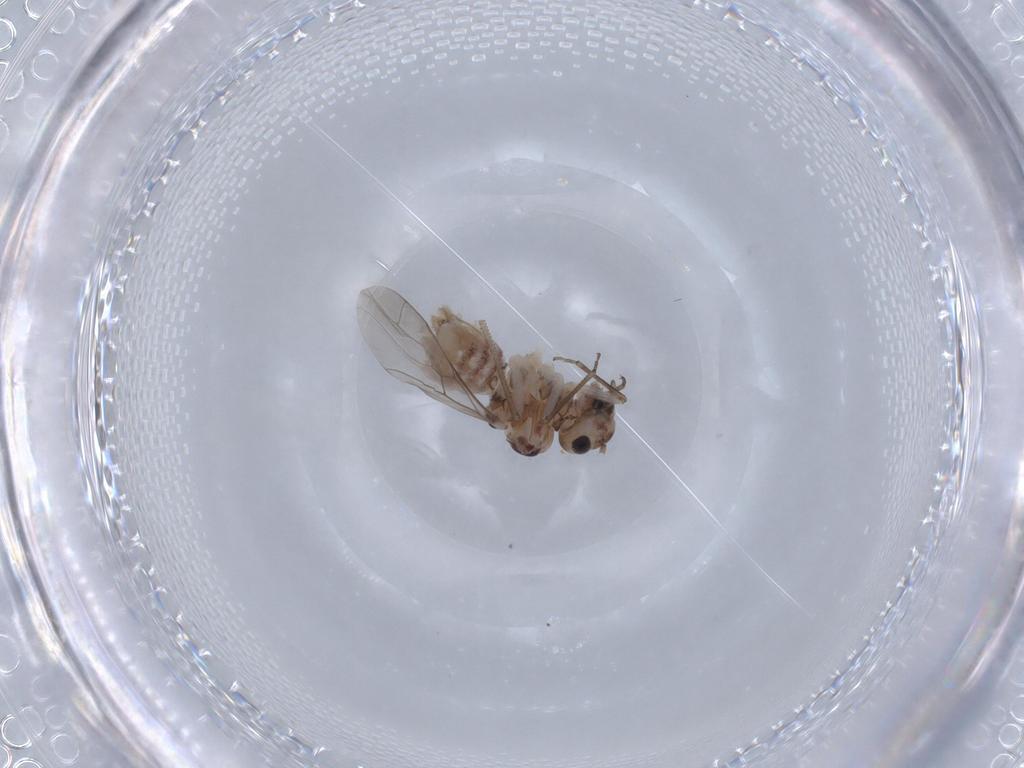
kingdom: Animalia
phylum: Arthropoda
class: Insecta
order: Psocodea
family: Peripsocidae
